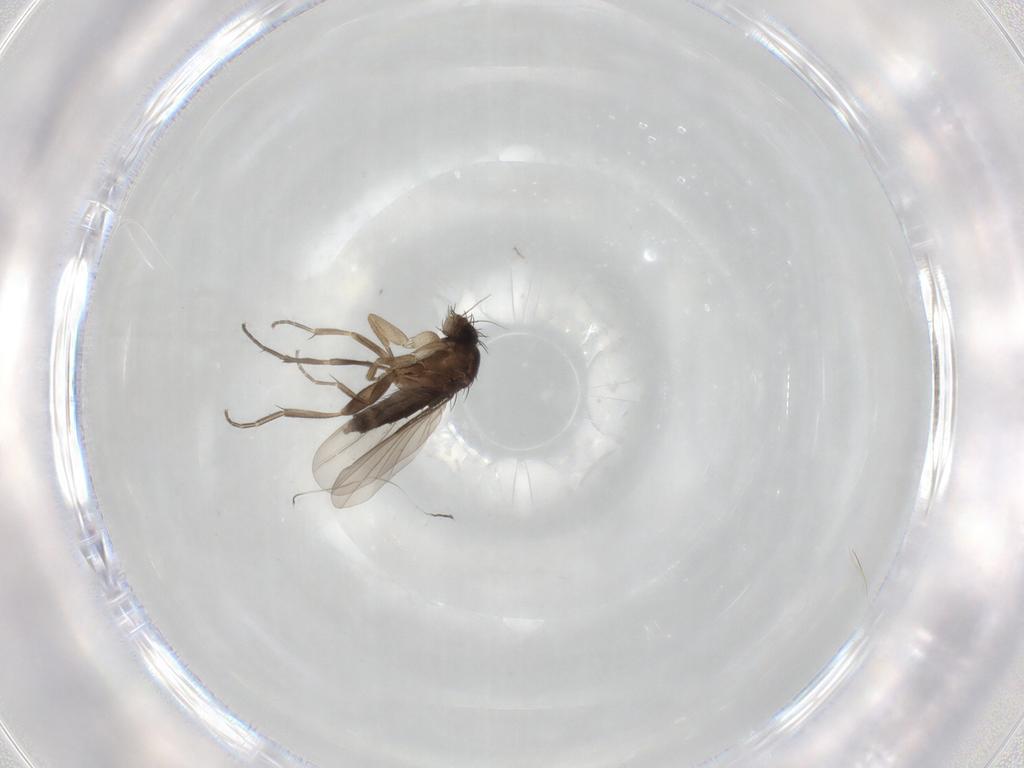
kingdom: Animalia
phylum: Arthropoda
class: Insecta
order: Diptera
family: Phoridae
